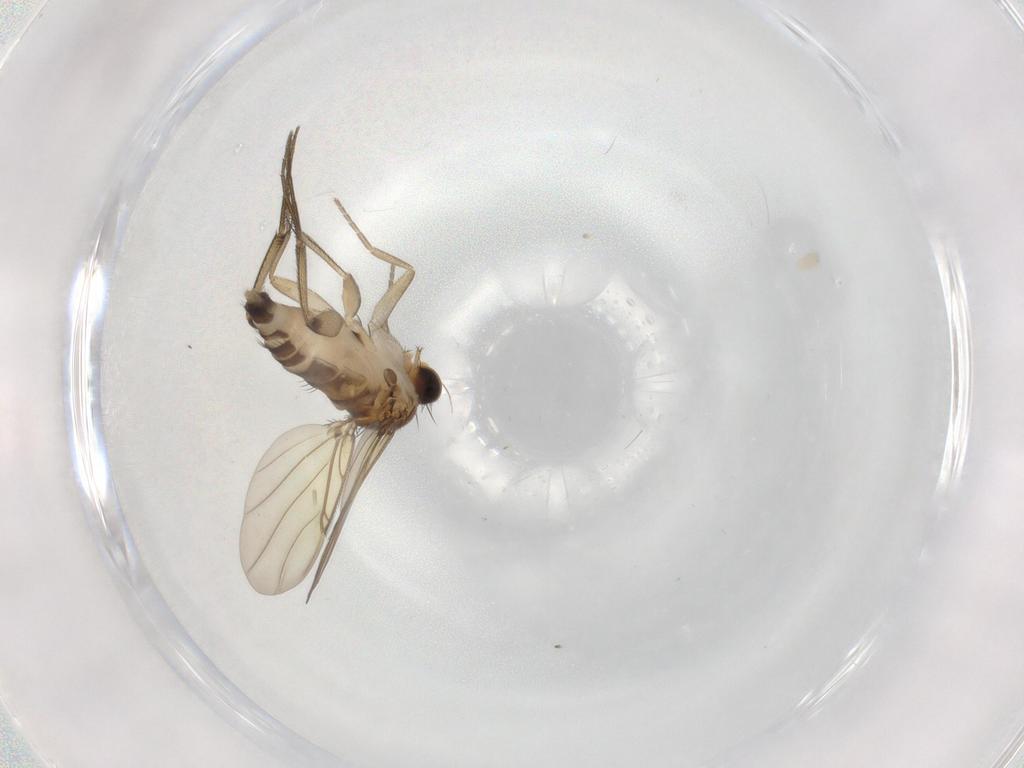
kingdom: Animalia
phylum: Arthropoda
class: Insecta
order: Diptera
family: Phoridae
